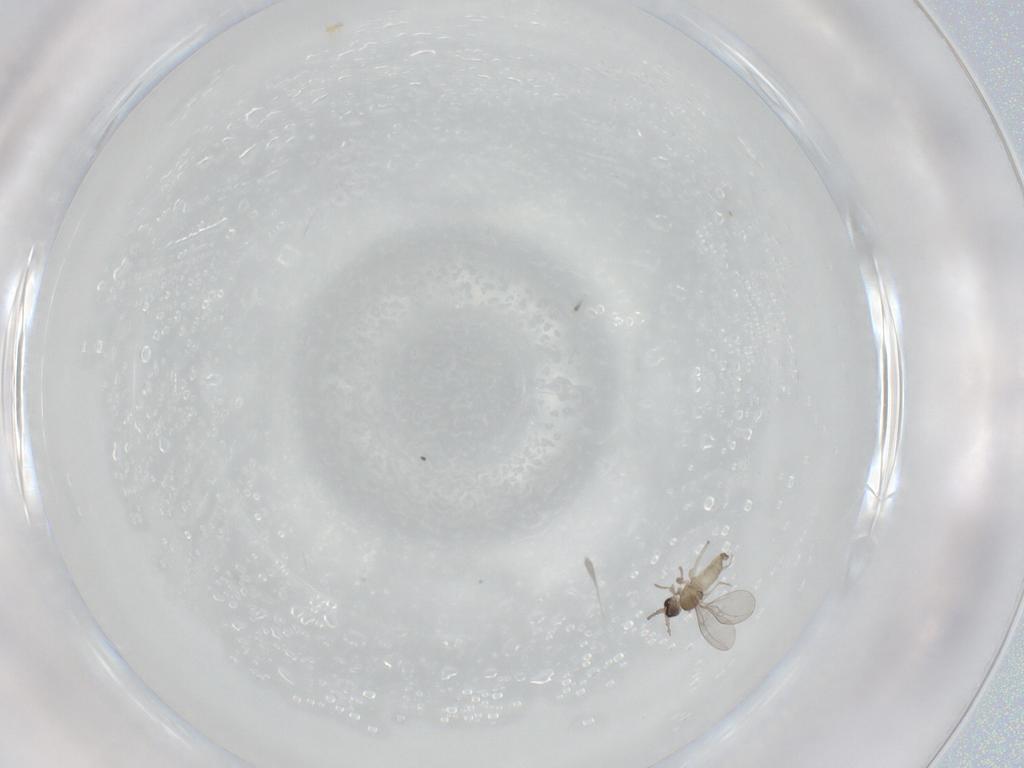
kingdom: Animalia
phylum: Arthropoda
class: Insecta
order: Diptera
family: Cecidomyiidae
